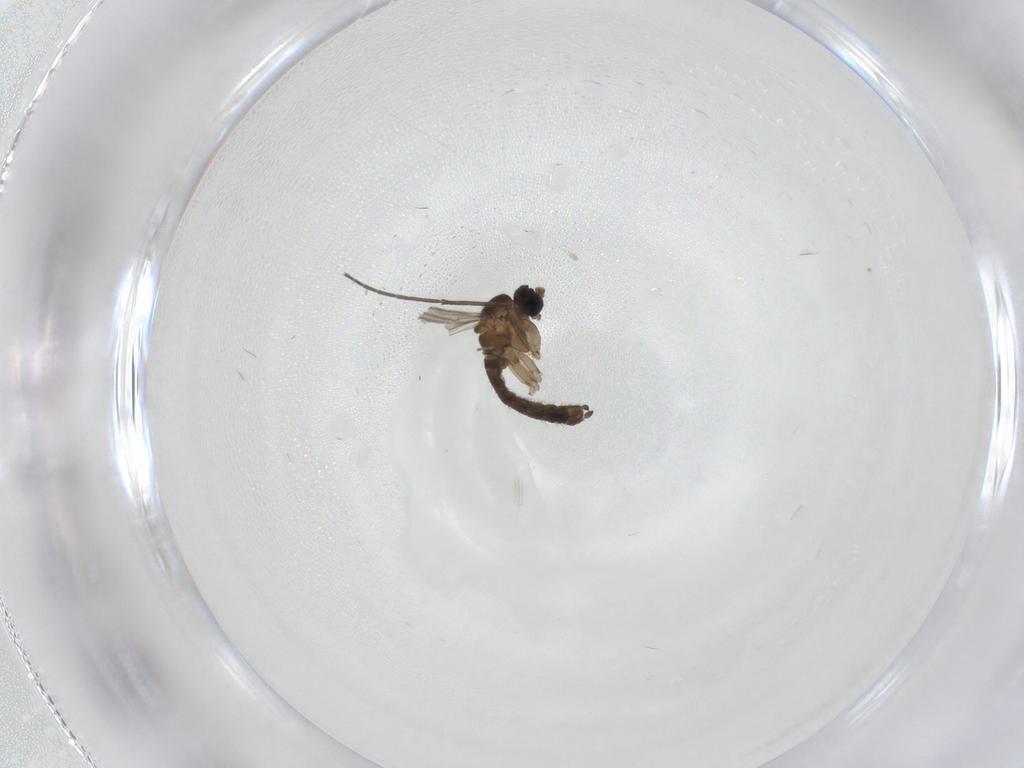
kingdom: Animalia
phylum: Arthropoda
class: Insecta
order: Diptera
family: Sciaridae
